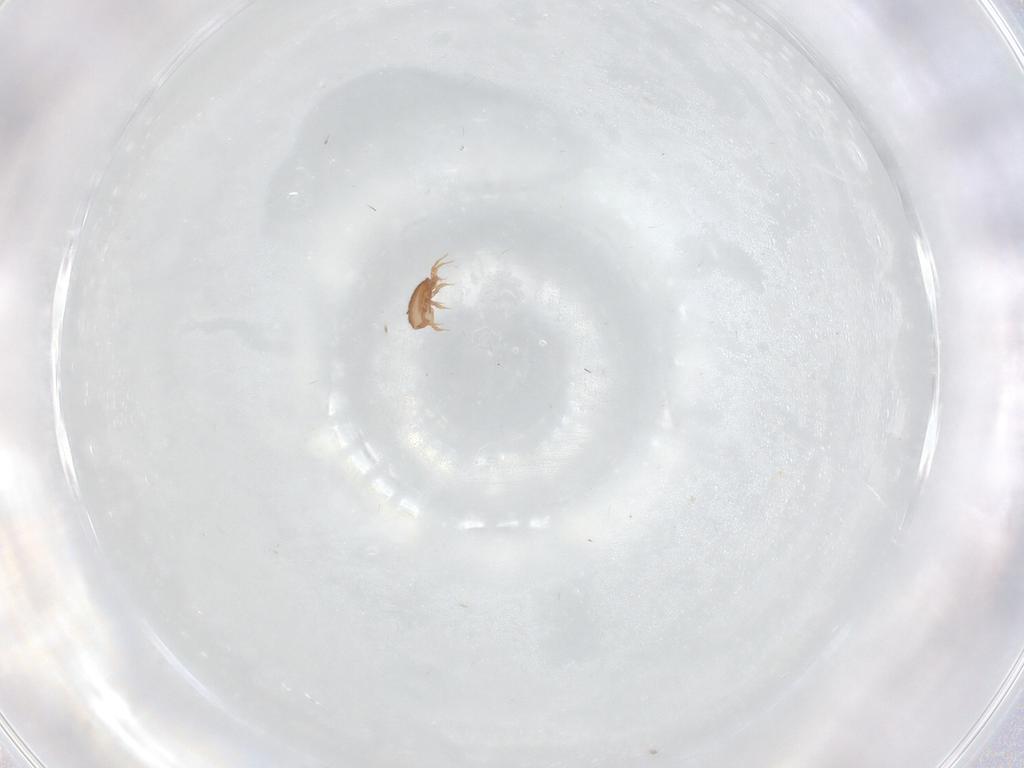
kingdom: Animalia
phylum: Arthropoda
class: Arachnida
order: Mesostigmata
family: Ascidae
